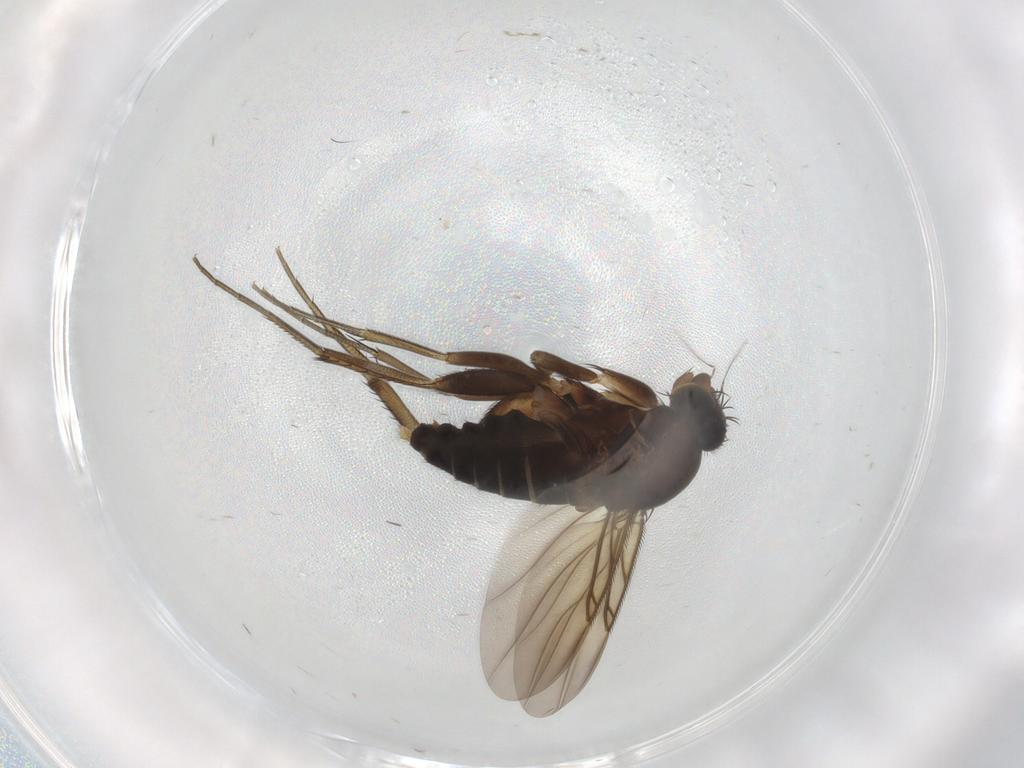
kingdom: Animalia
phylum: Arthropoda
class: Insecta
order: Diptera
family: Phoridae
